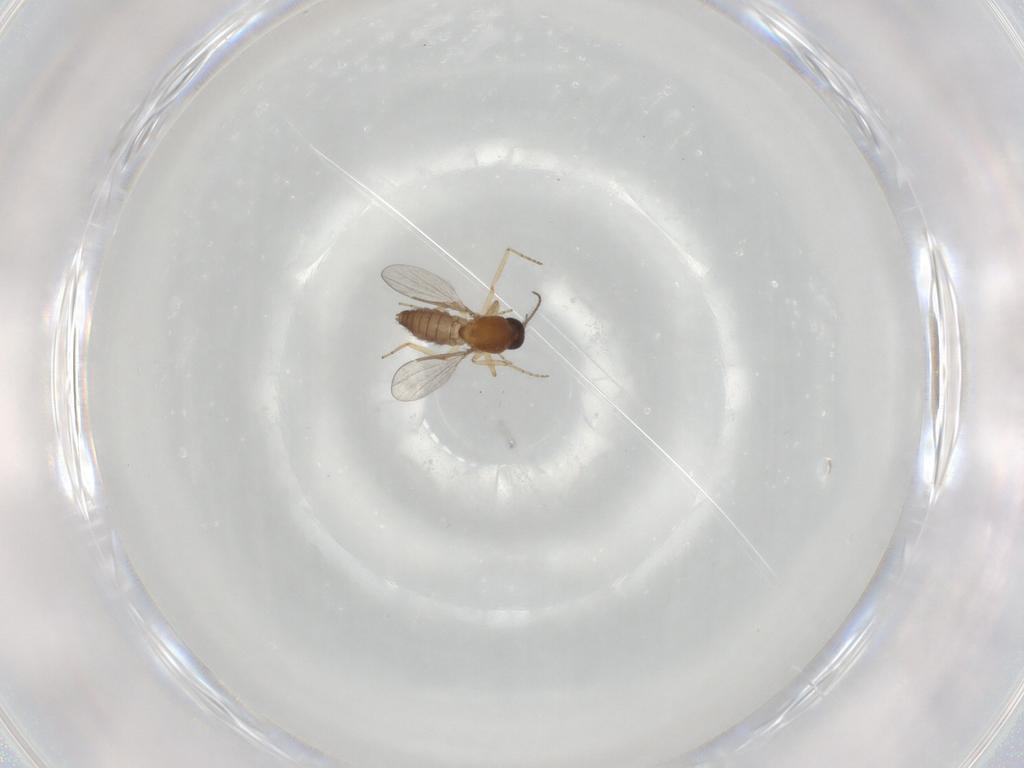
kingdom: Animalia
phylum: Arthropoda
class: Insecta
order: Diptera
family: Ceratopogonidae
